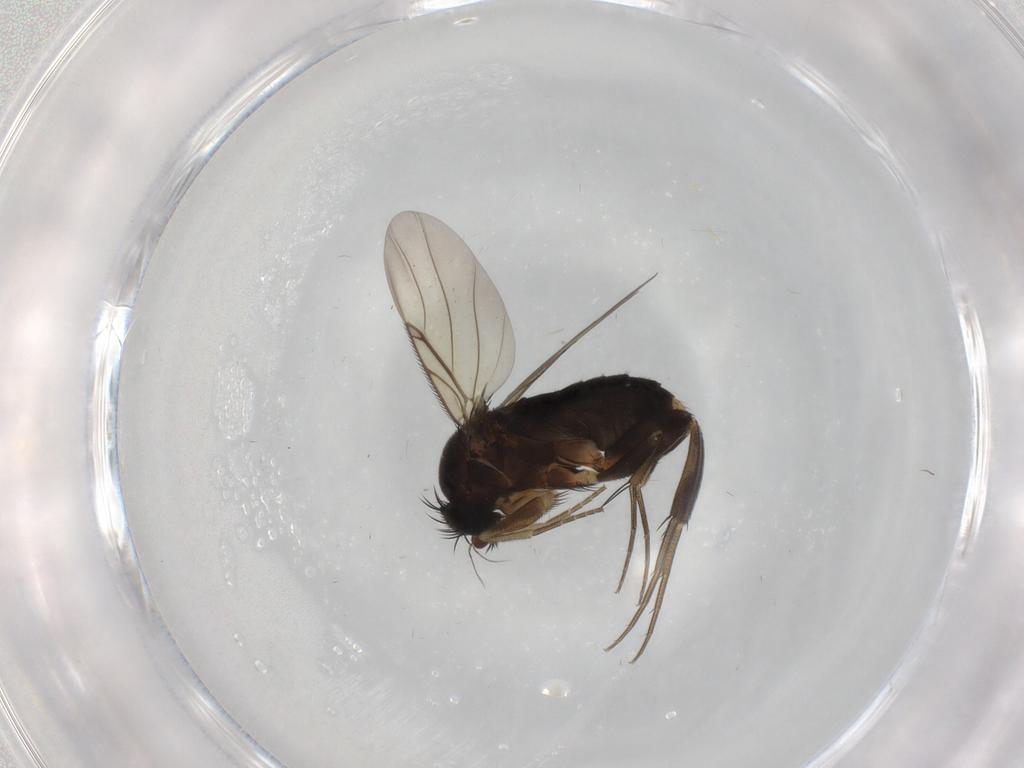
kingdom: Animalia
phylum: Arthropoda
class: Insecta
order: Diptera
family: Phoridae
